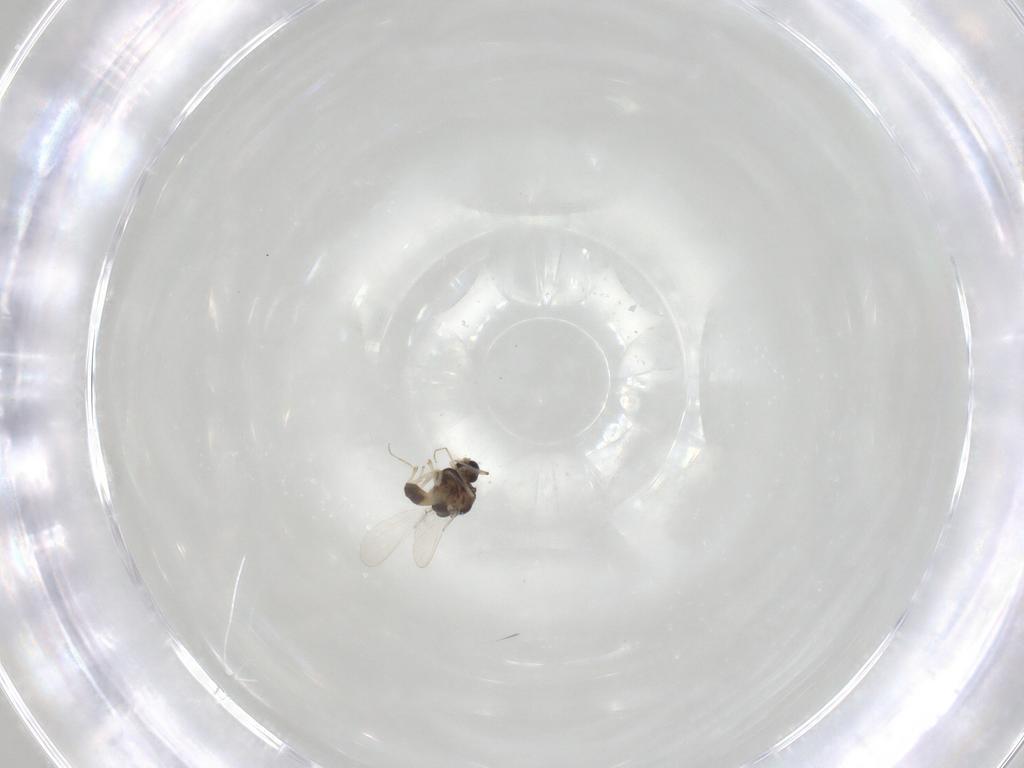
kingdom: Animalia
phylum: Arthropoda
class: Insecta
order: Diptera
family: Chironomidae
